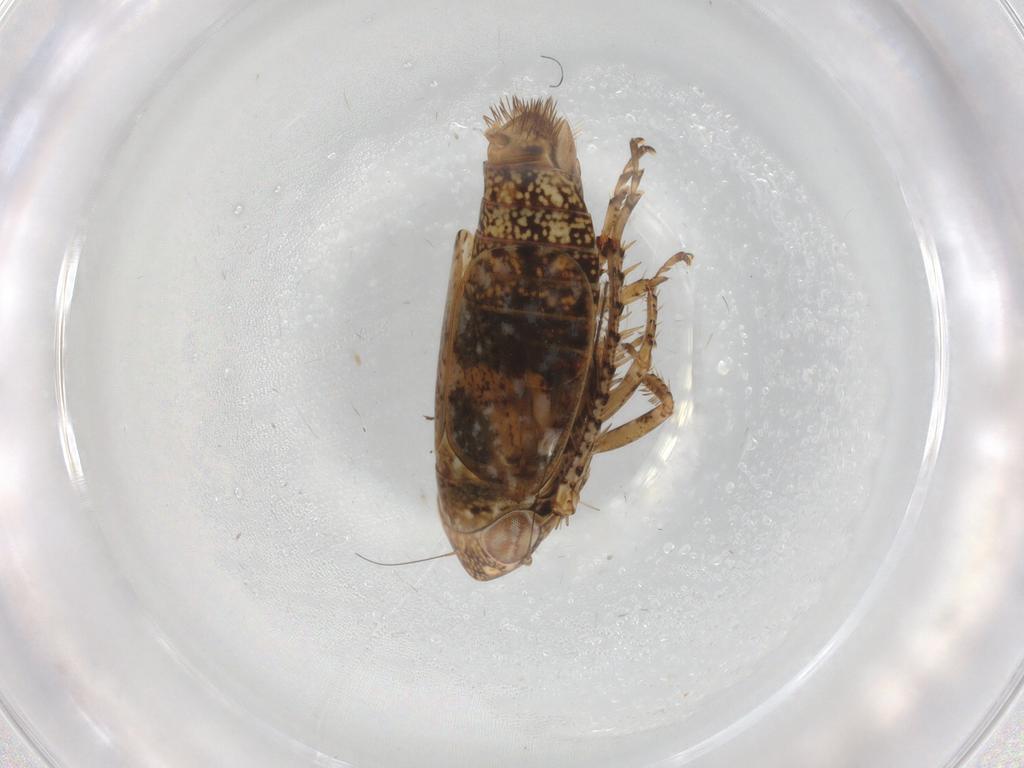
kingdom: Animalia
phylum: Arthropoda
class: Insecta
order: Hemiptera
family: Cicadellidae
